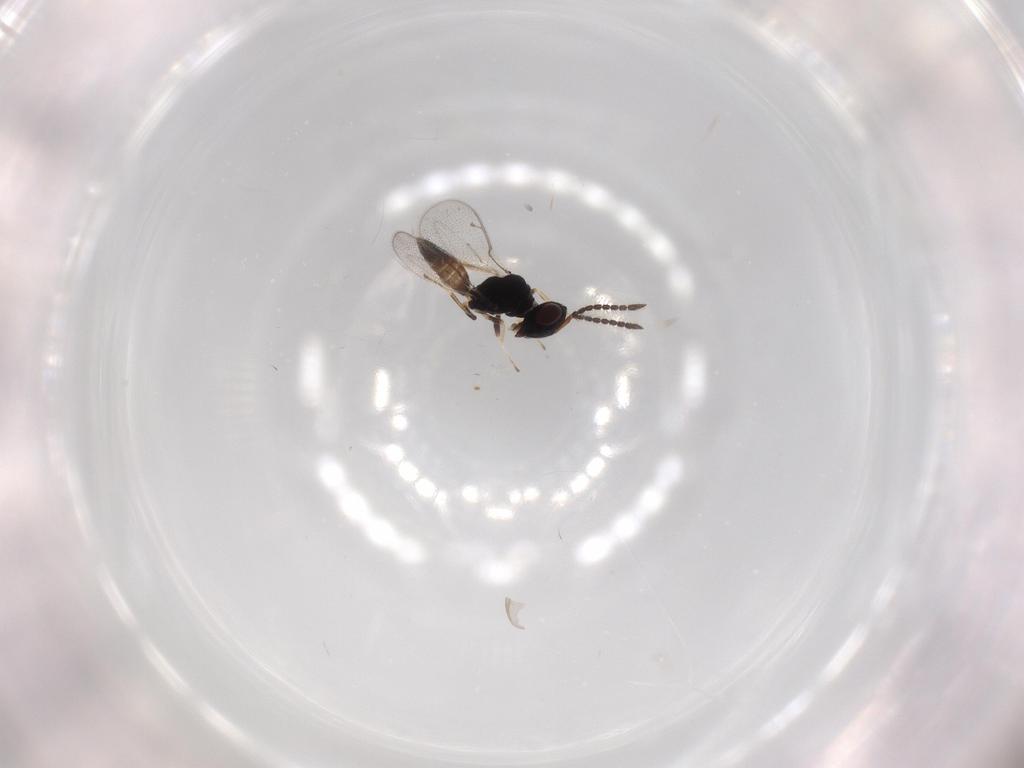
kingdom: Animalia
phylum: Arthropoda
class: Insecta
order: Hymenoptera
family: Pteromalidae
